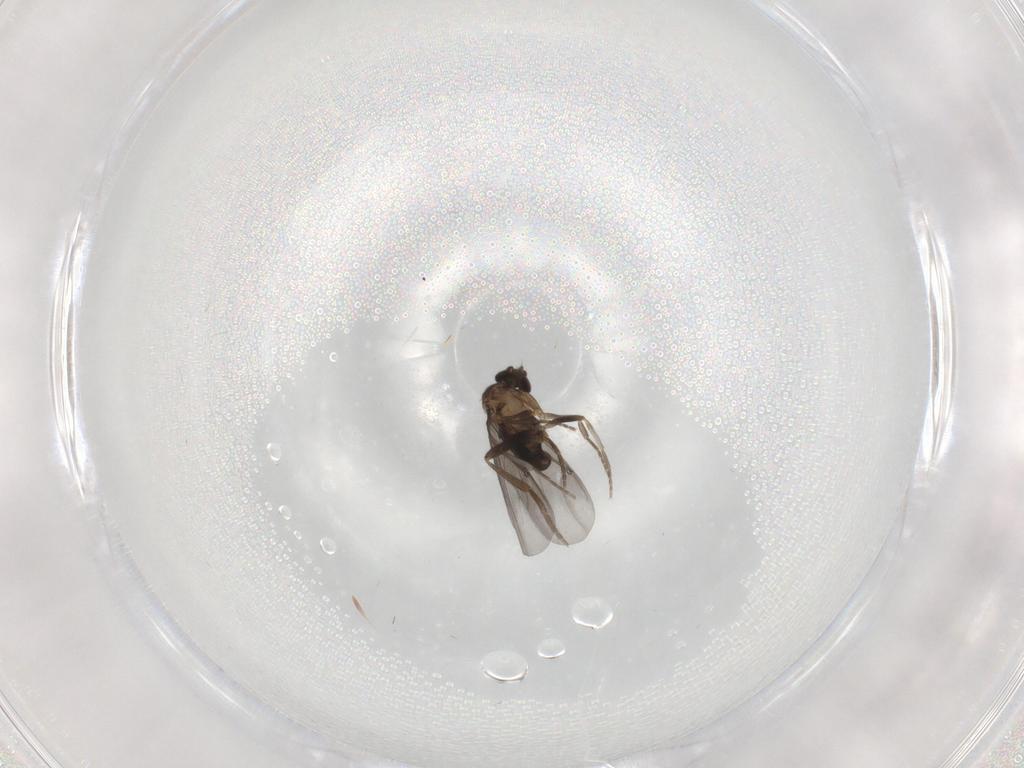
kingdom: Animalia
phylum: Arthropoda
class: Insecta
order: Diptera
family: Phoridae
